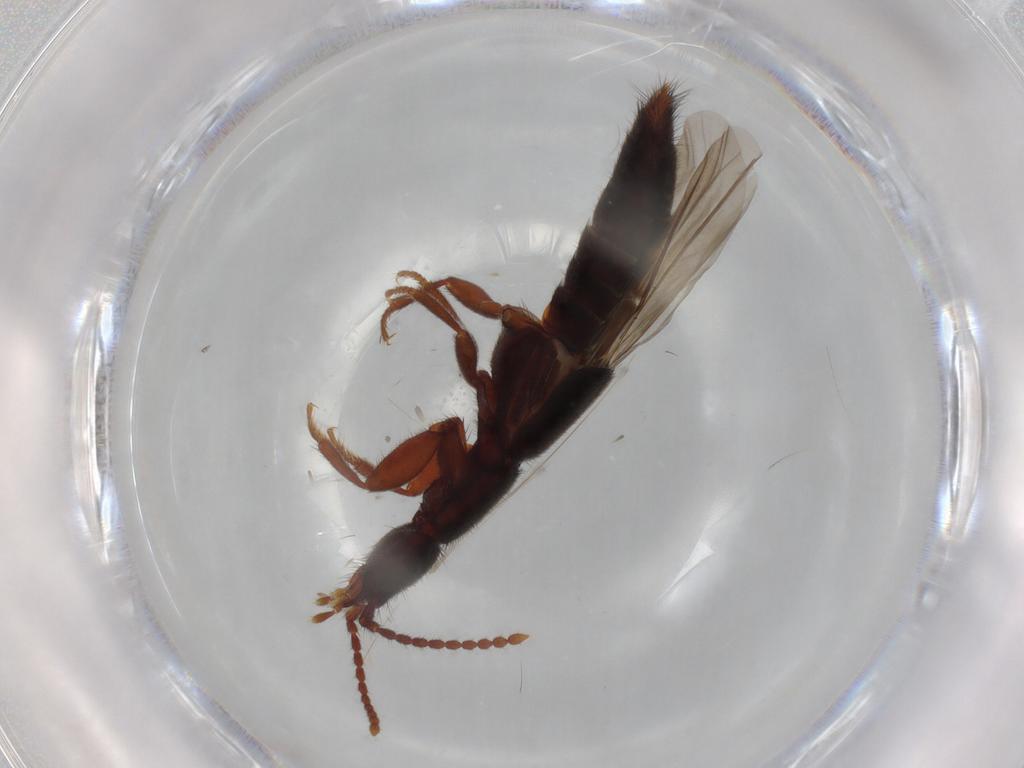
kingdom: Animalia
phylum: Arthropoda
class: Insecta
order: Coleoptera
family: Staphylinidae
